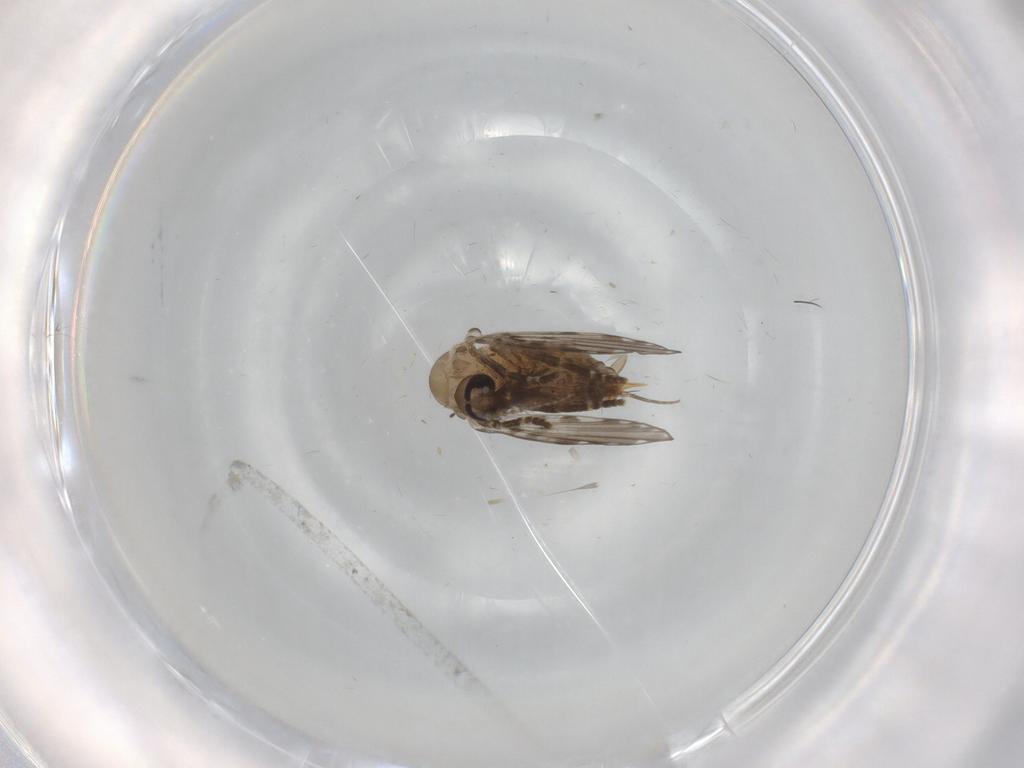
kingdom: Animalia
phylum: Arthropoda
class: Insecta
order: Diptera
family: Psychodidae
